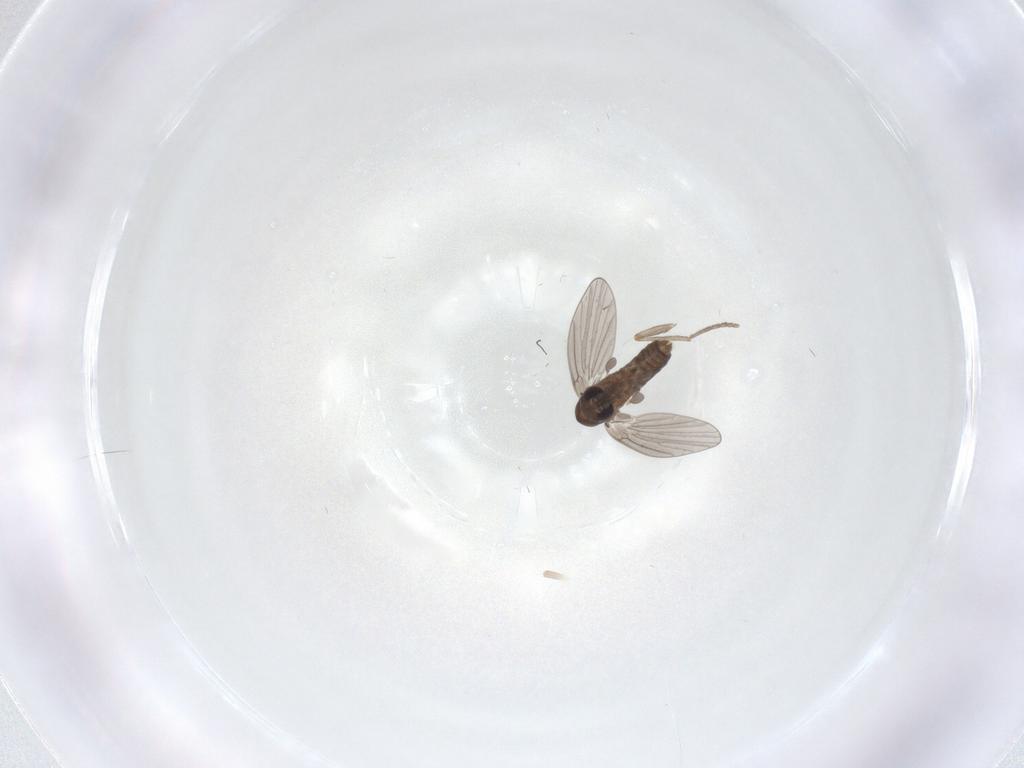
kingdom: Animalia
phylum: Arthropoda
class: Insecta
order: Diptera
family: Psychodidae
